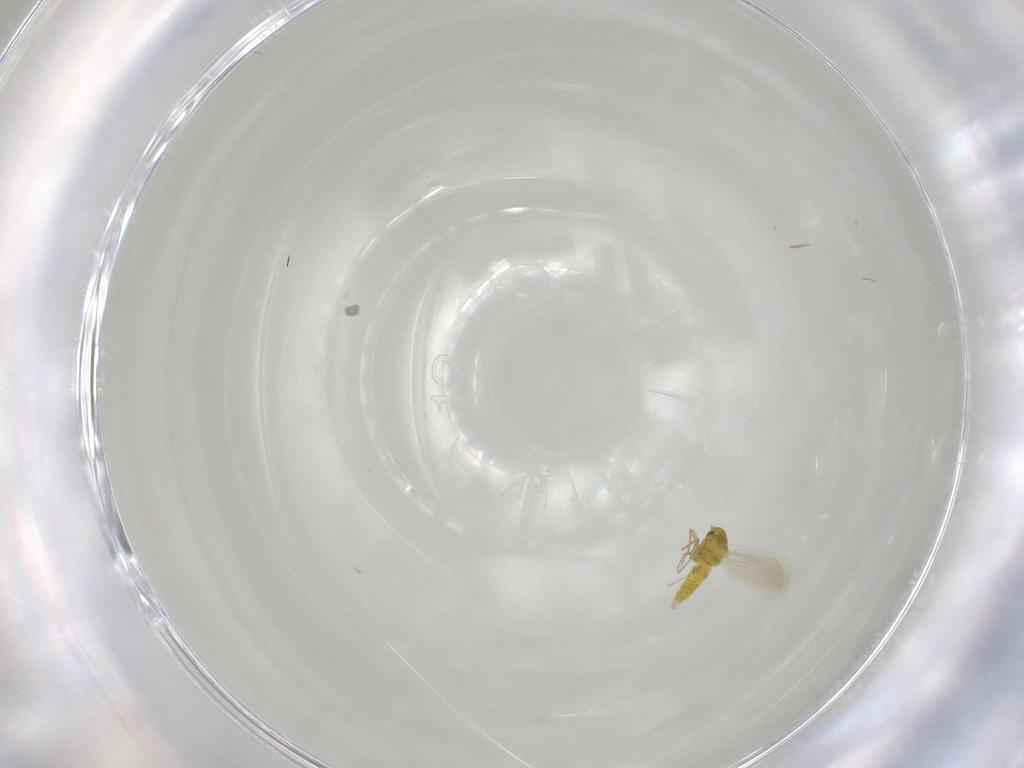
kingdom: Animalia
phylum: Arthropoda
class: Insecta
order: Hemiptera
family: Aleyrodidae
